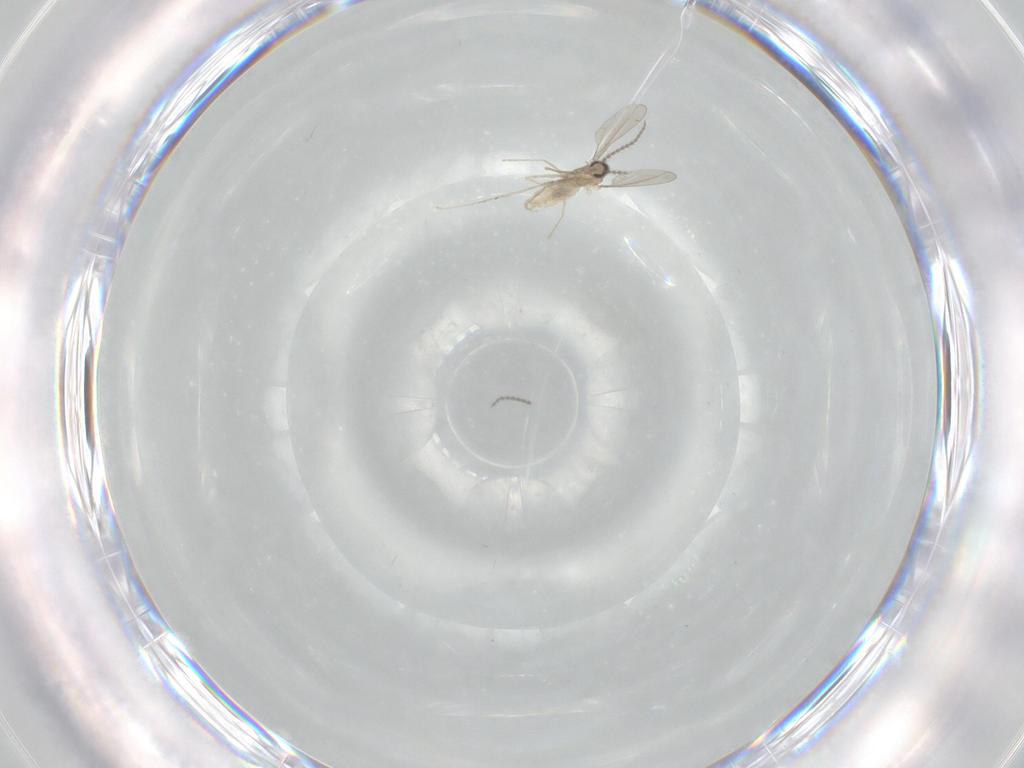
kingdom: Animalia
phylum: Arthropoda
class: Insecta
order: Diptera
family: Cecidomyiidae
